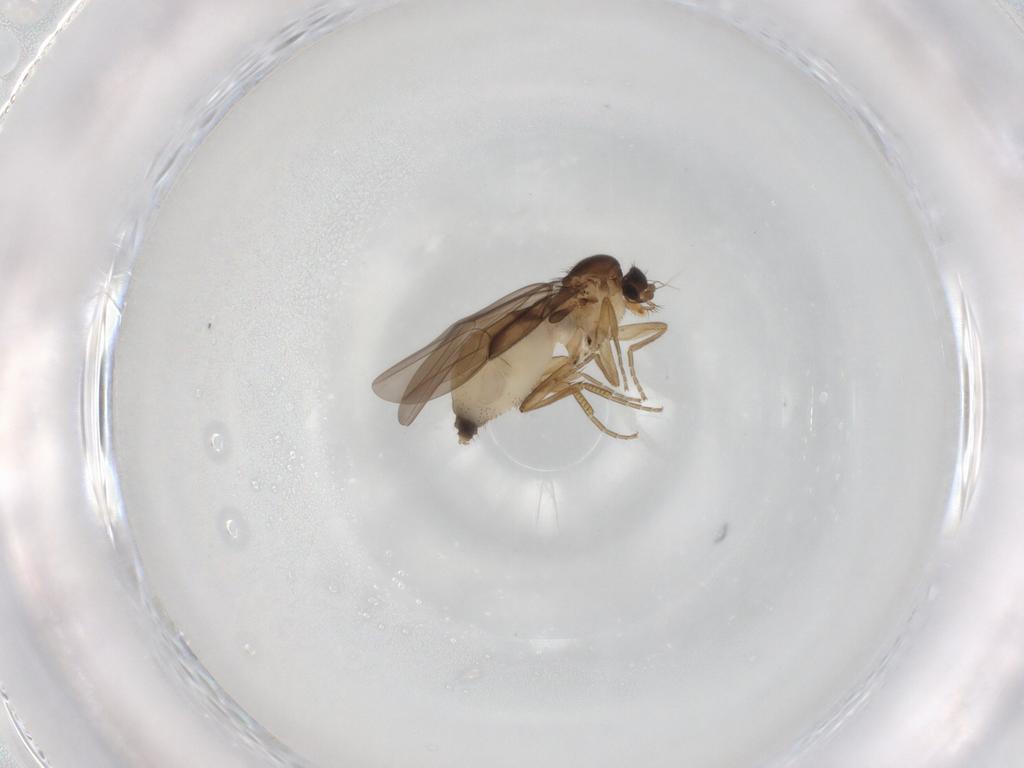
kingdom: Animalia
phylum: Arthropoda
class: Insecta
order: Diptera
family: Phoridae
